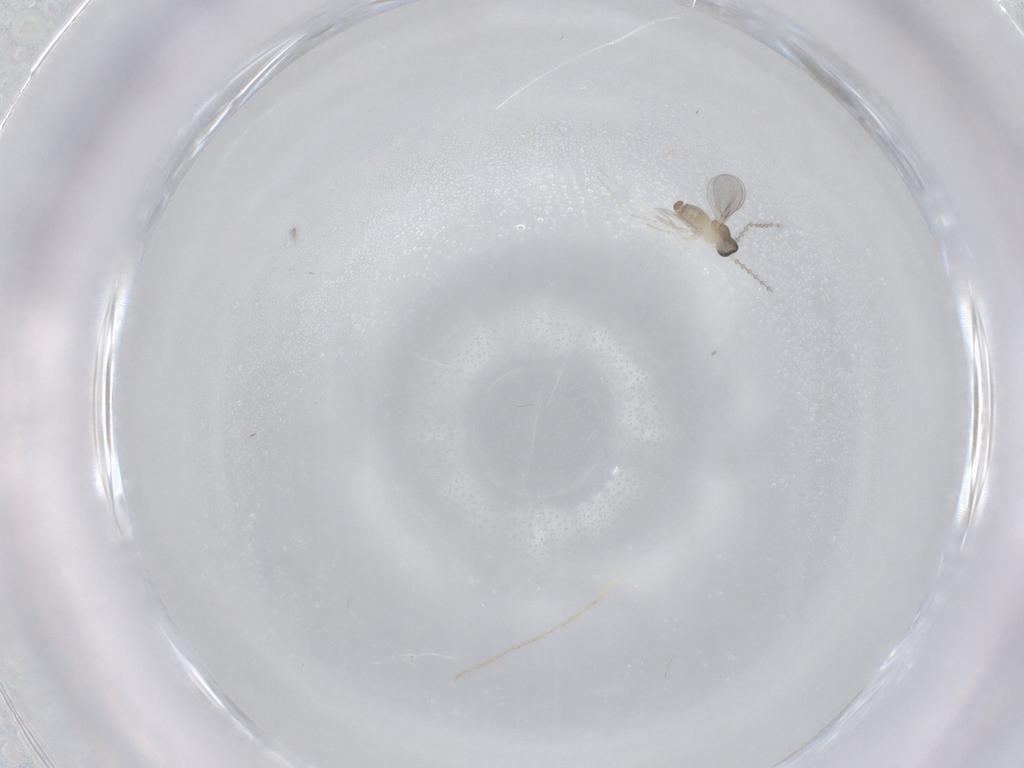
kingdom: Animalia
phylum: Arthropoda
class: Insecta
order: Diptera
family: Cecidomyiidae
